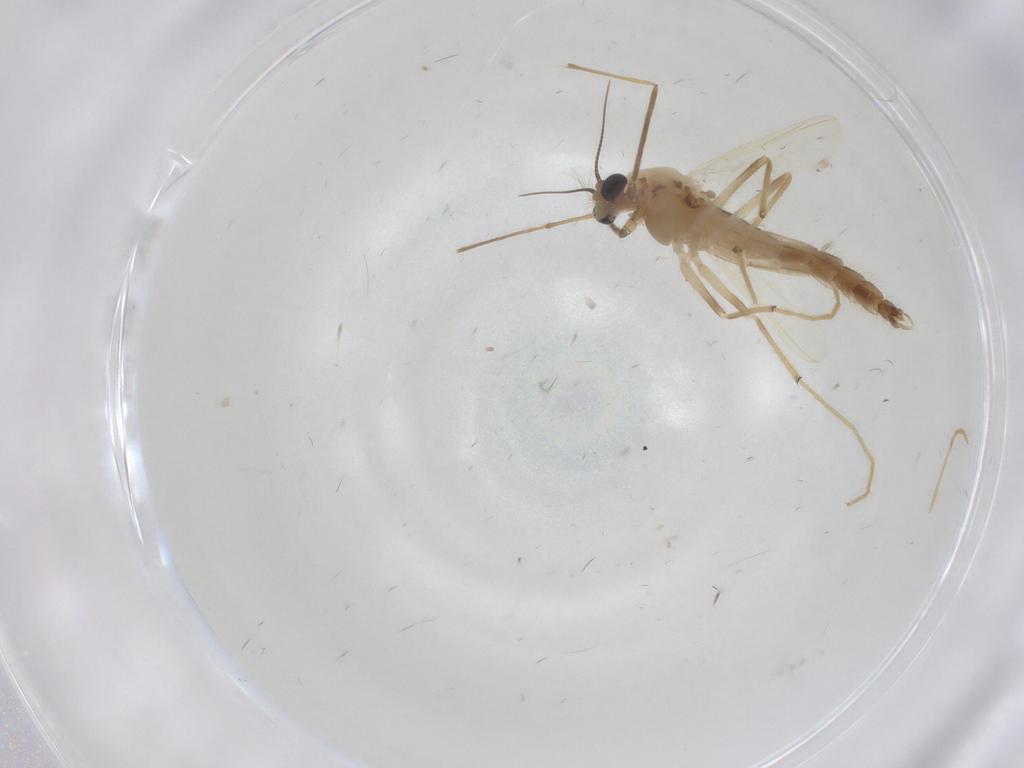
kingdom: Animalia
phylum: Arthropoda
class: Insecta
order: Diptera
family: Chironomidae
